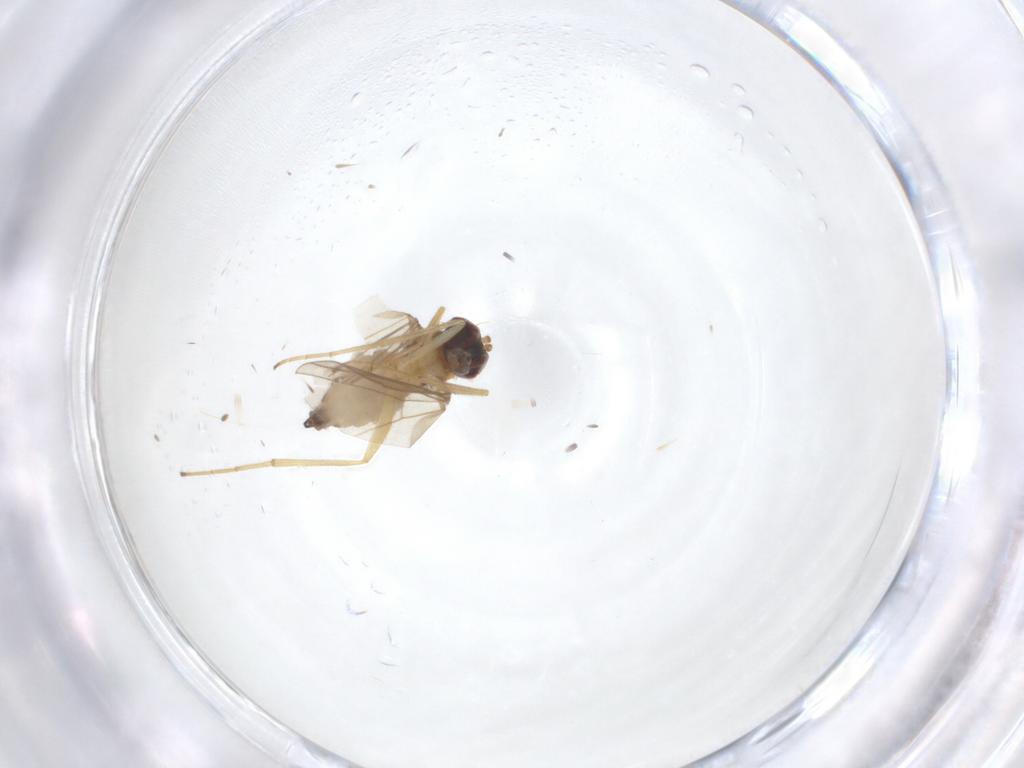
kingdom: Animalia
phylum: Arthropoda
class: Insecta
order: Diptera
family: Dolichopodidae
